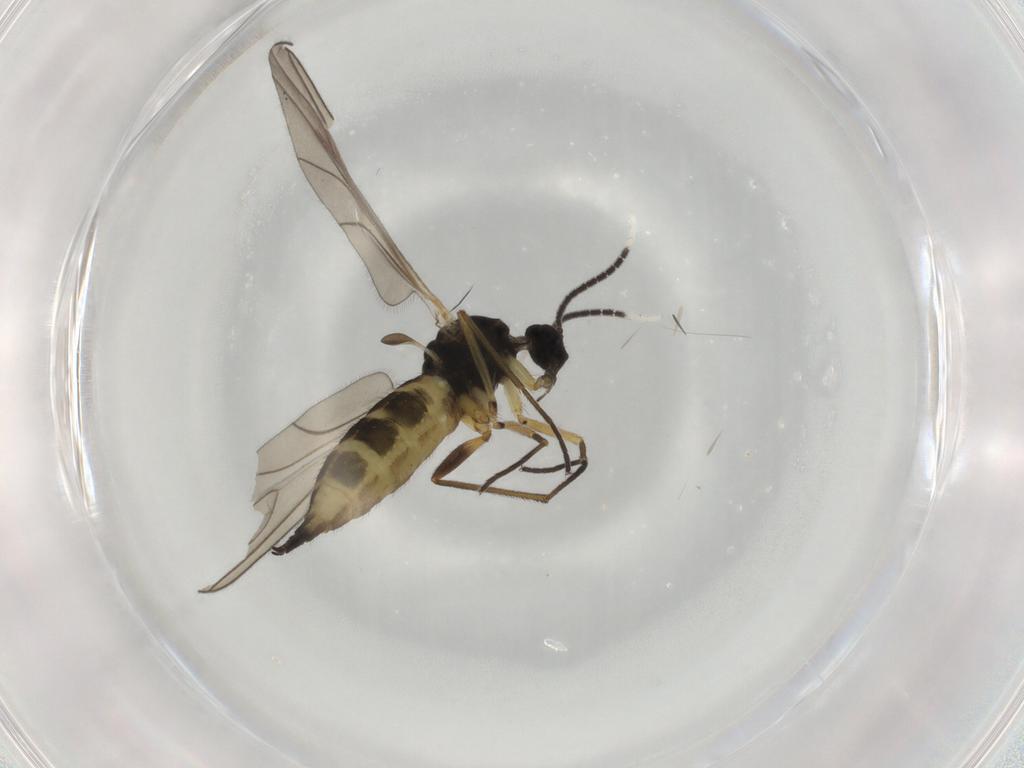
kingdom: Animalia
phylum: Arthropoda
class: Insecta
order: Diptera
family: Sciaridae
